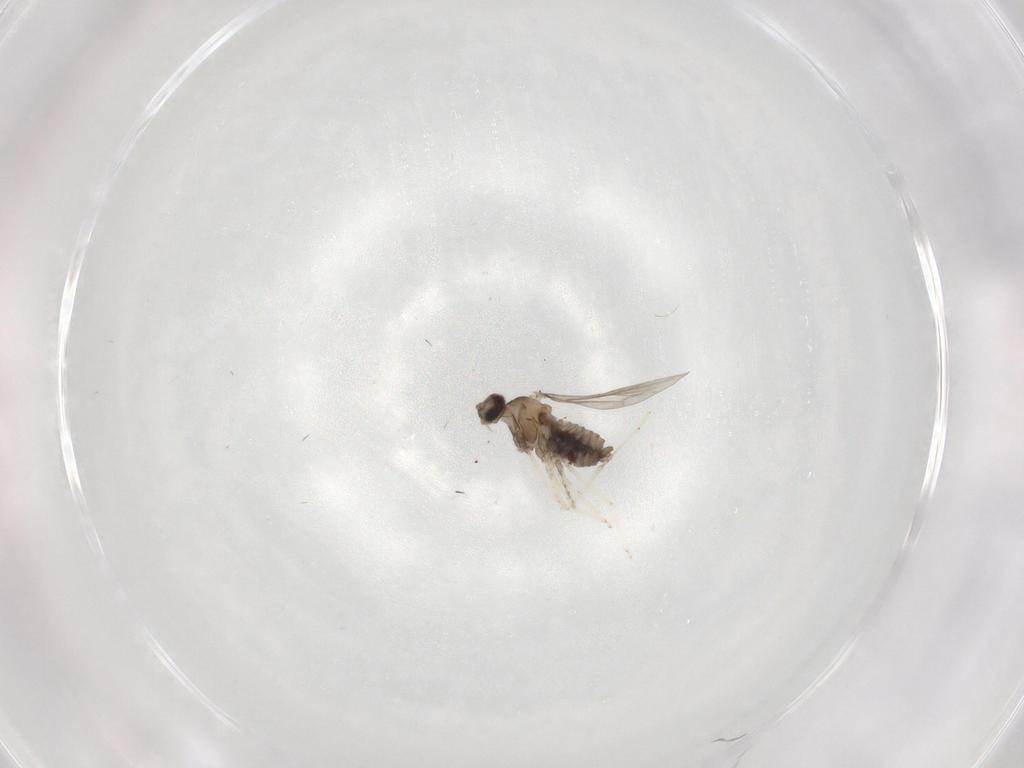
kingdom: Animalia
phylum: Arthropoda
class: Insecta
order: Diptera
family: Cecidomyiidae
